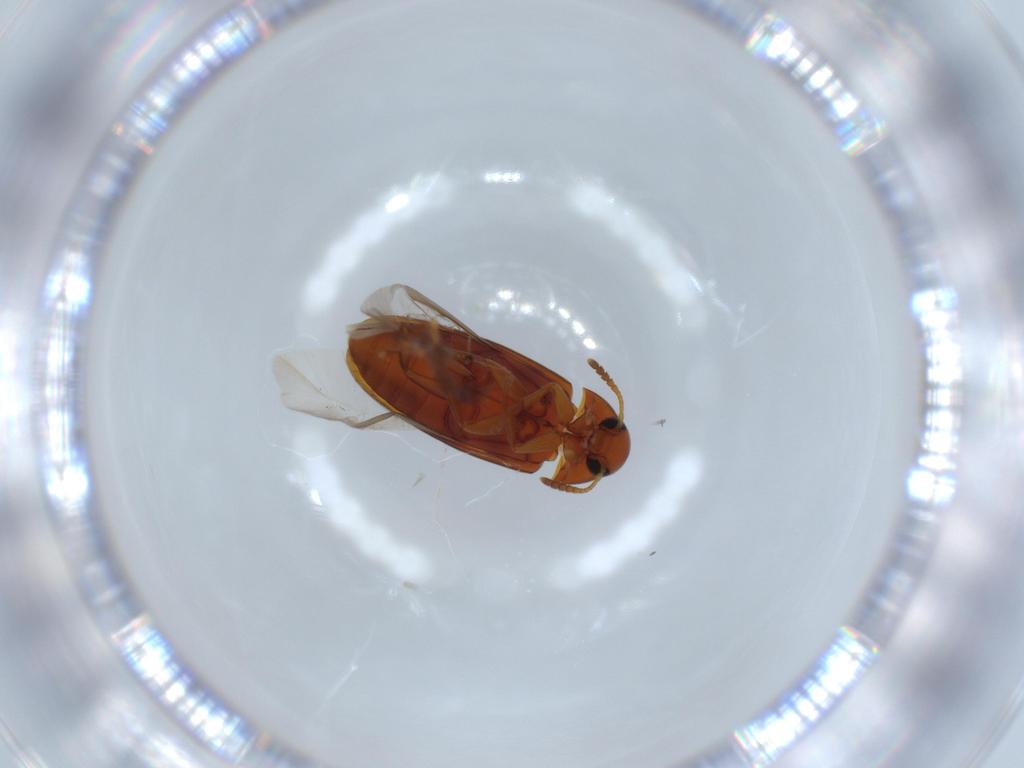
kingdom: Animalia
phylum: Arthropoda
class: Insecta
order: Coleoptera
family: Scraptiidae
